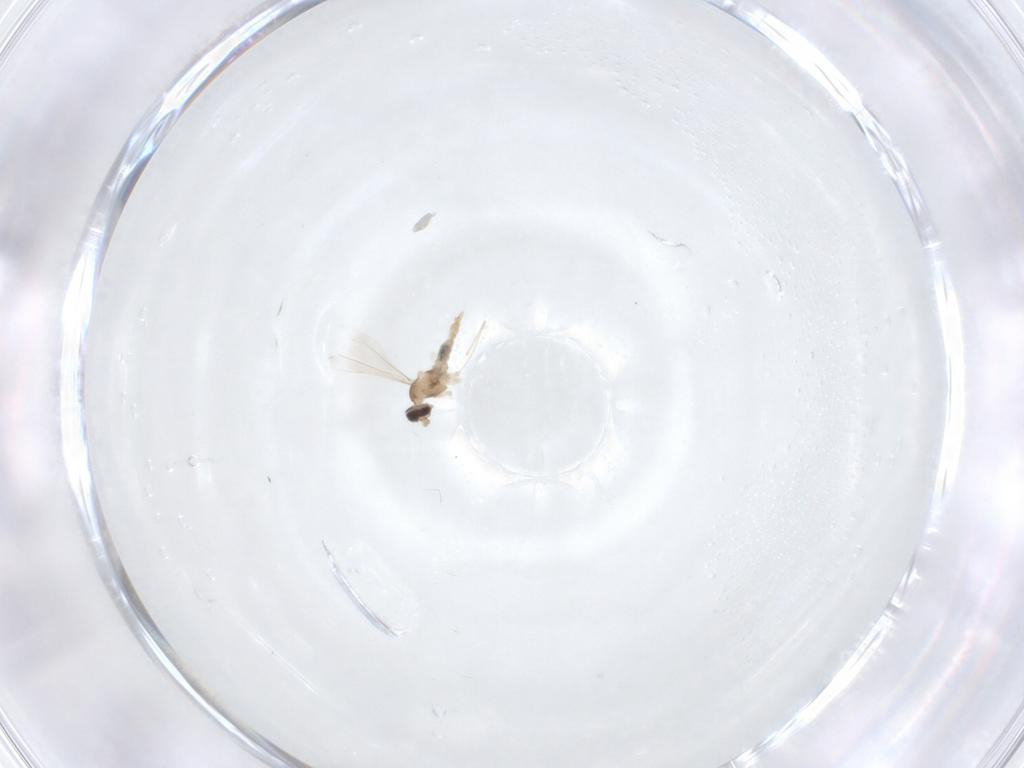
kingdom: Animalia
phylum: Arthropoda
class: Insecta
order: Diptera
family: Cecidomyiidae
